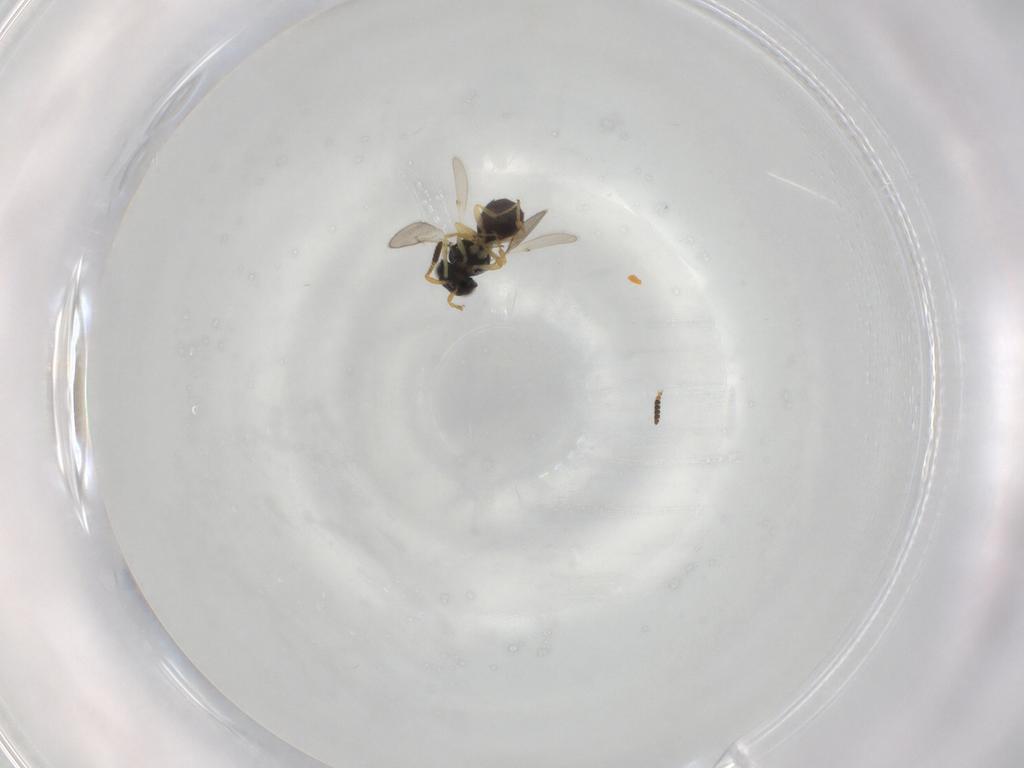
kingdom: Animalia
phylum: Arthropoda
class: Insecta
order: Hymenoptera
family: Scelionidae
